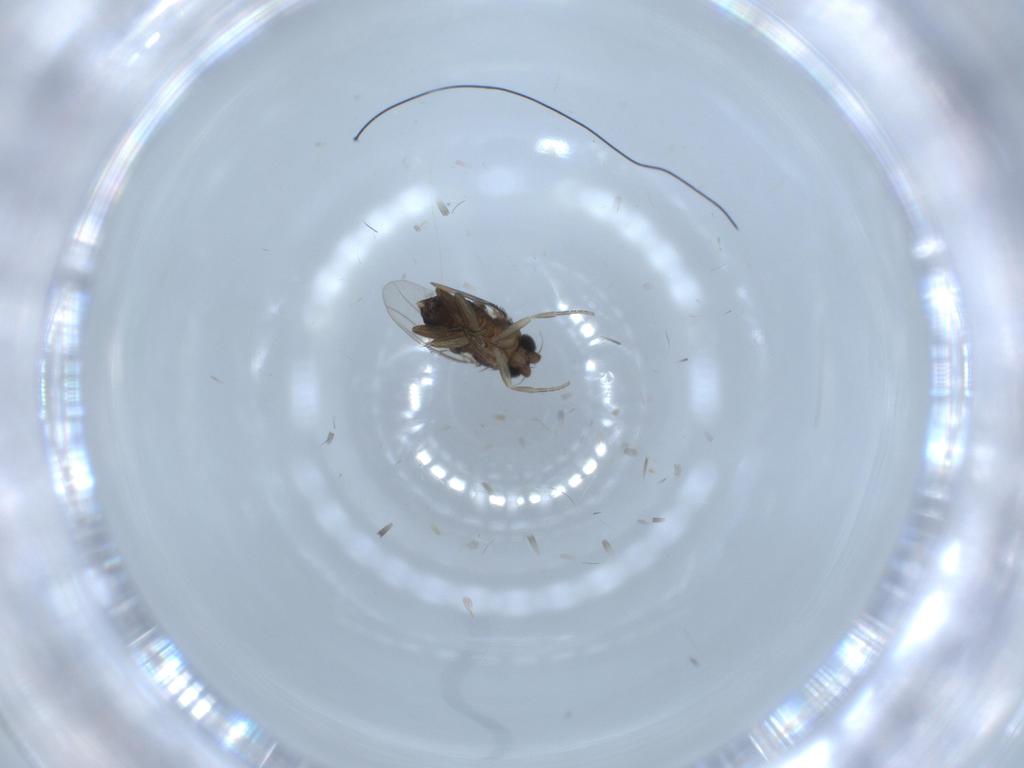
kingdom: Animalia
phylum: Arthropoda
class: Insecta
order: Diptera
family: Phoridae
